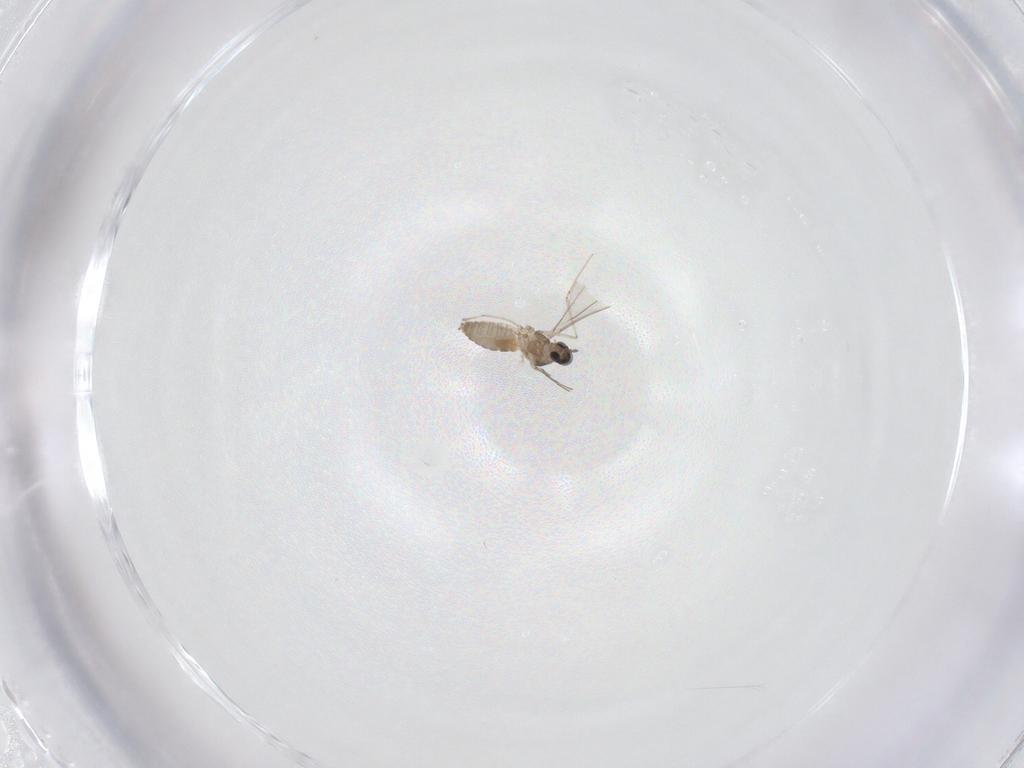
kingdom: Animalia
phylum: Arthropoda
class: Insecta
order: Diptera
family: Cecidomyiidae
